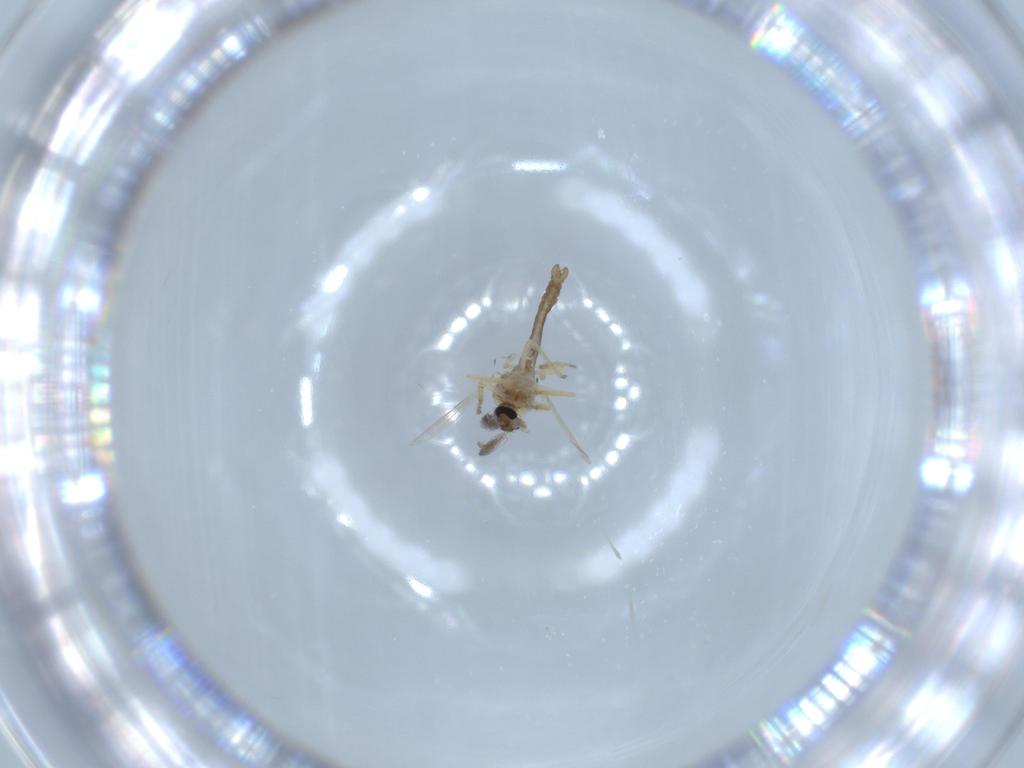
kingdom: Animalia
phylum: Arthropoda
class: Insecta
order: Diptera
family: Ceratopogonidae
